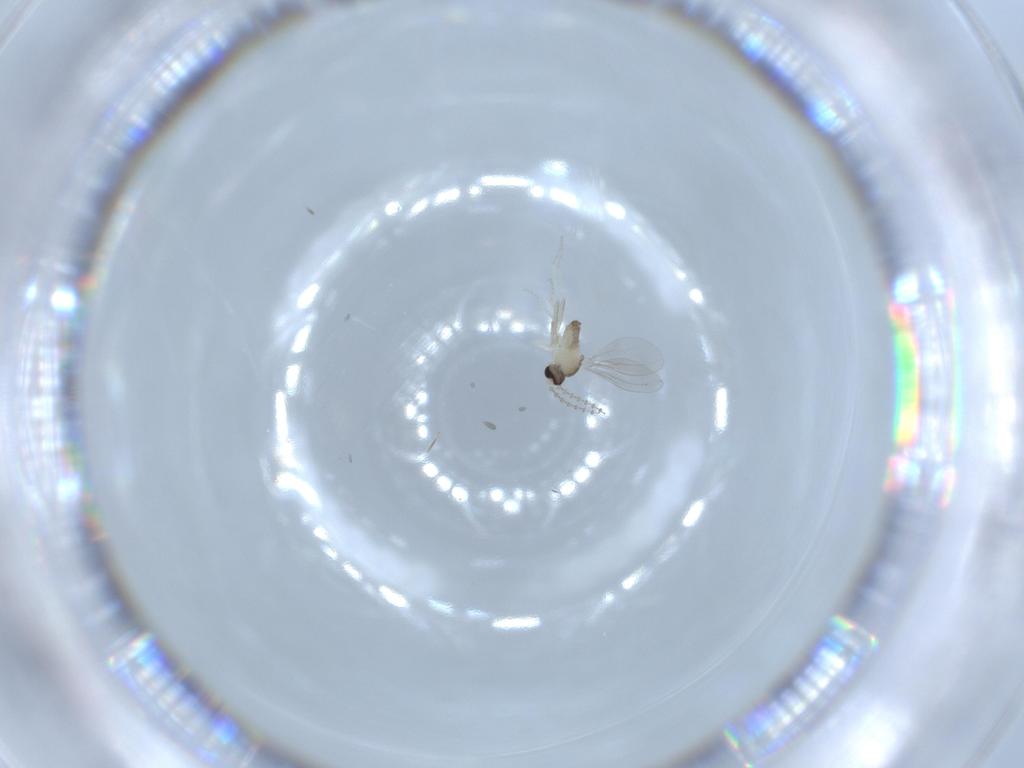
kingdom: Animalia
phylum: Arthropoda
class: Insecta
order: Diptera
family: Cecidomyiidae
